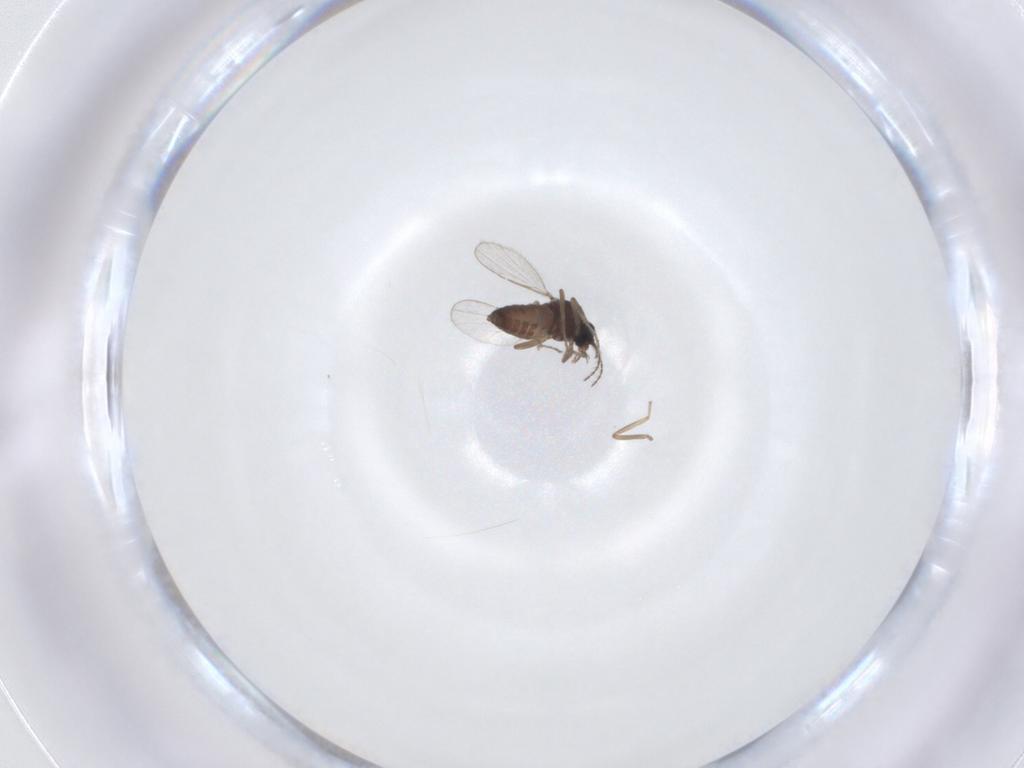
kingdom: Animalia
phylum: Arthropoda
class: Insecta
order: Diptera
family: Ceratopogonidae
